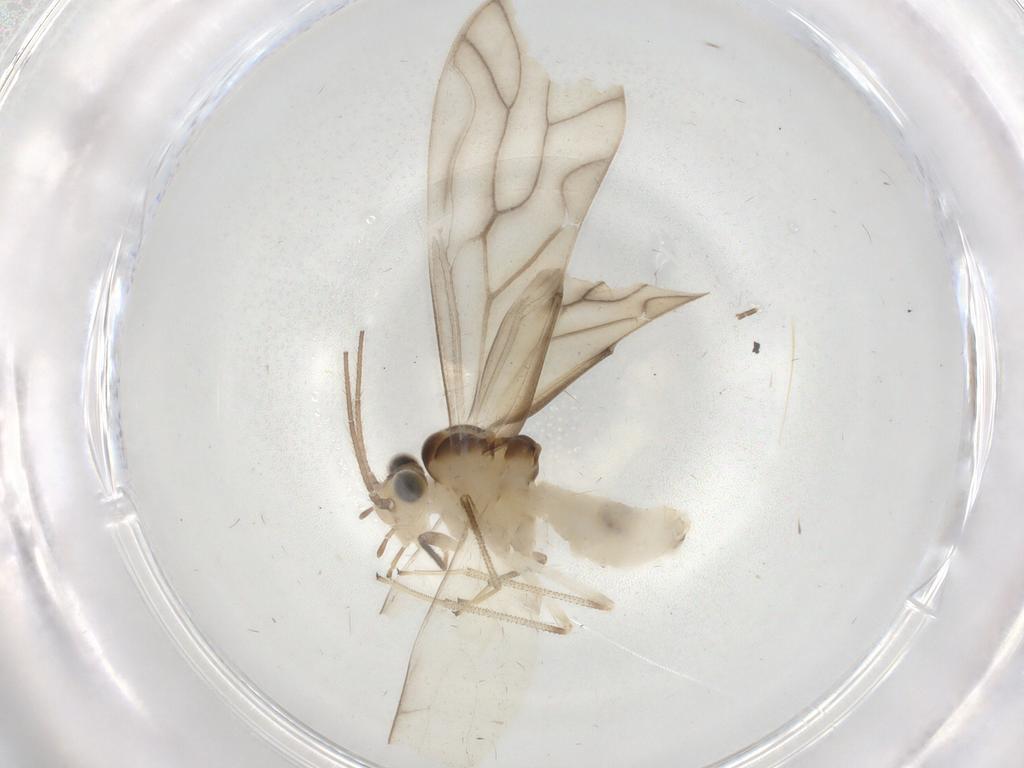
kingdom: Animalia
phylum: Arthropoda
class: Insecta
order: Psocodea
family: Caeciliusidae
